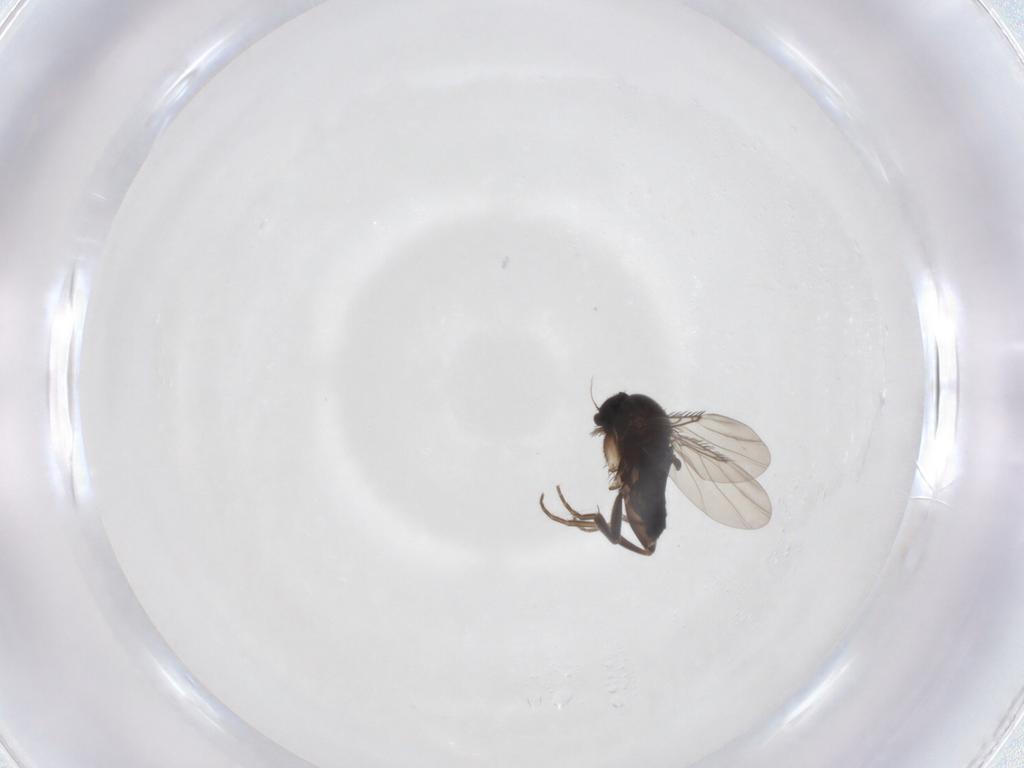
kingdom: Animalia
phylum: Arthropoda
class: Insecta
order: Diptera
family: Phoridae
